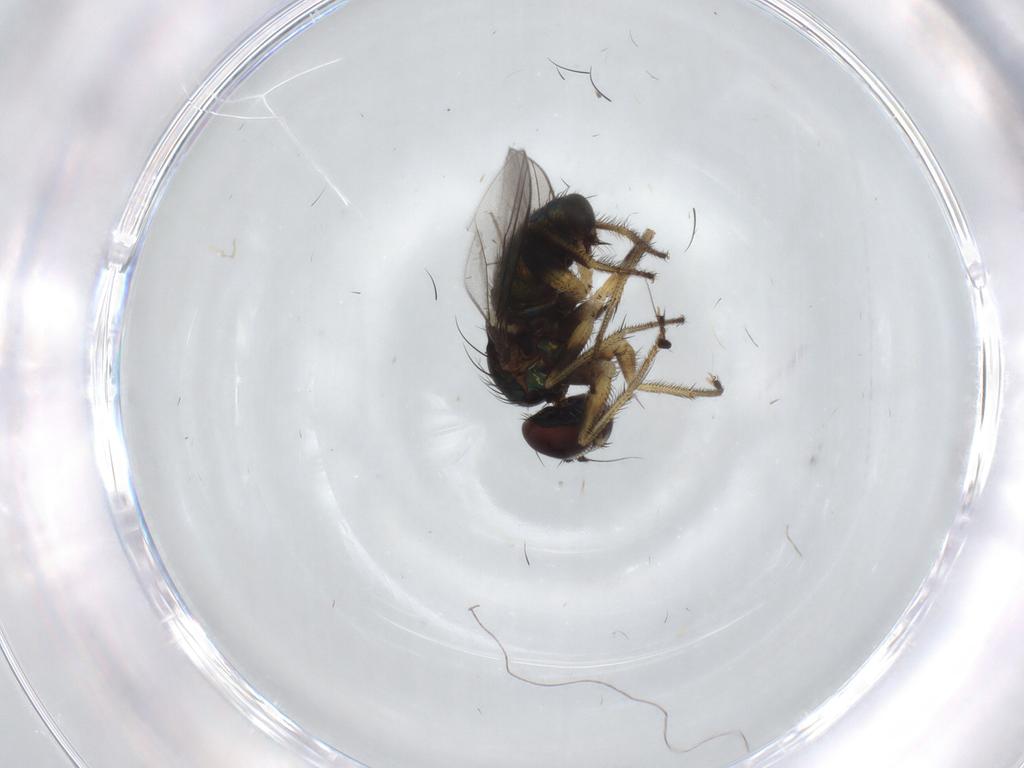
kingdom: Animalia
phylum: Arthropoda
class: Insecta
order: Diptera
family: Dolichopodidae
